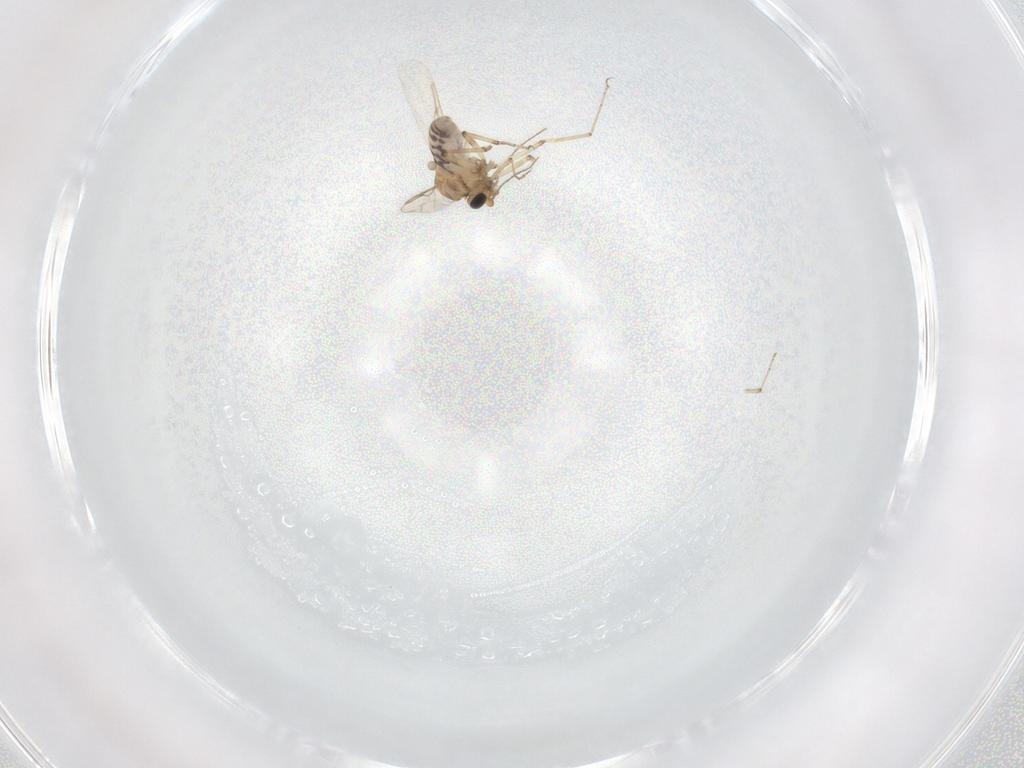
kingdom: Animalia
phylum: Arthropoda
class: Insecta
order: Diptera
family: Ceratopogonidae
